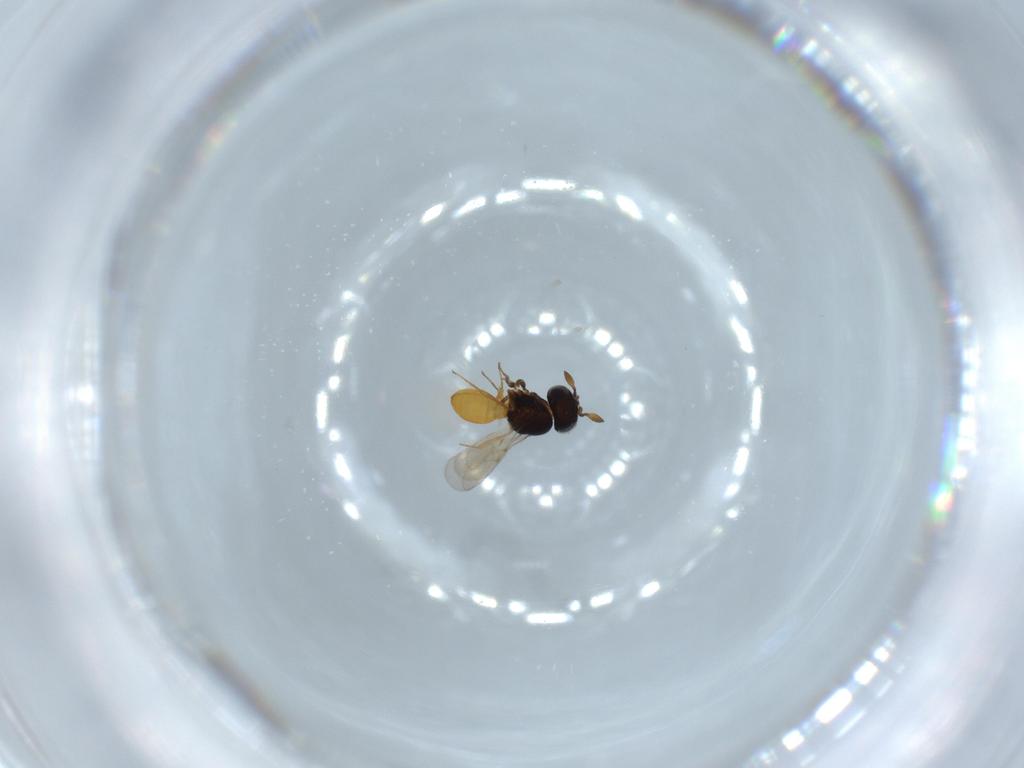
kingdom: Animalia
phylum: Arthropoda
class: Insecta
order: Hymenoptera
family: Scelionidae
